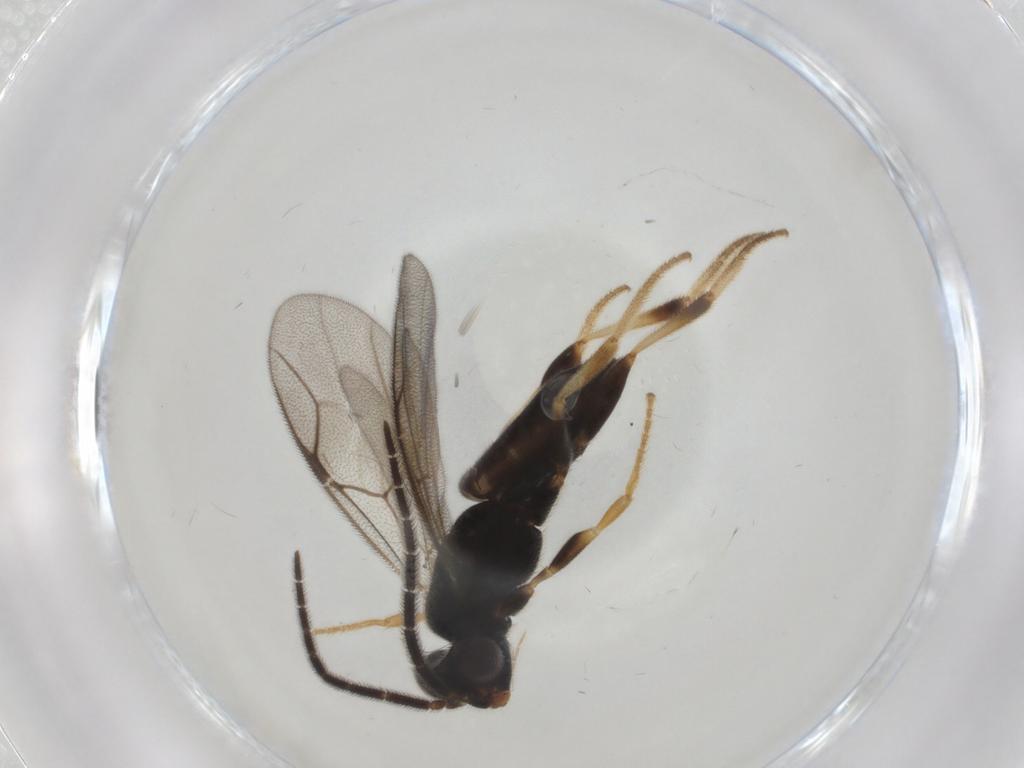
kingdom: Animalia
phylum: Arthropoda
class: Insecta
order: Hymenoptera
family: Dryinidae
